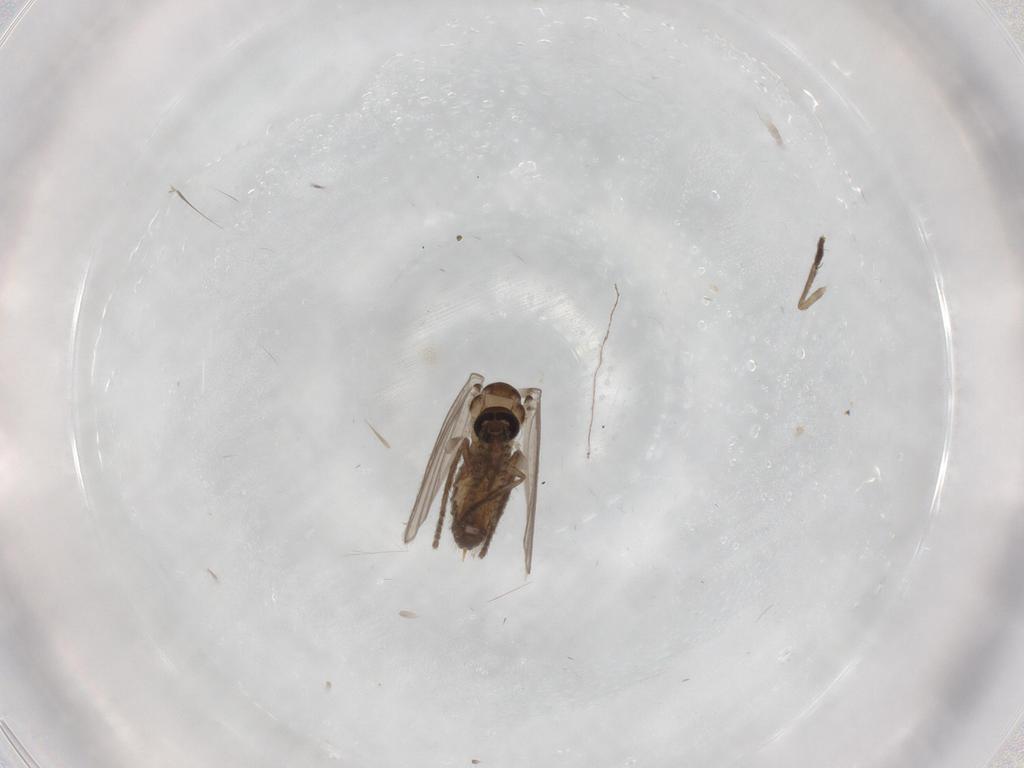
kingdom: Animalia
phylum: Arthropoda
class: Insecta
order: Diptera
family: Psychodidae
